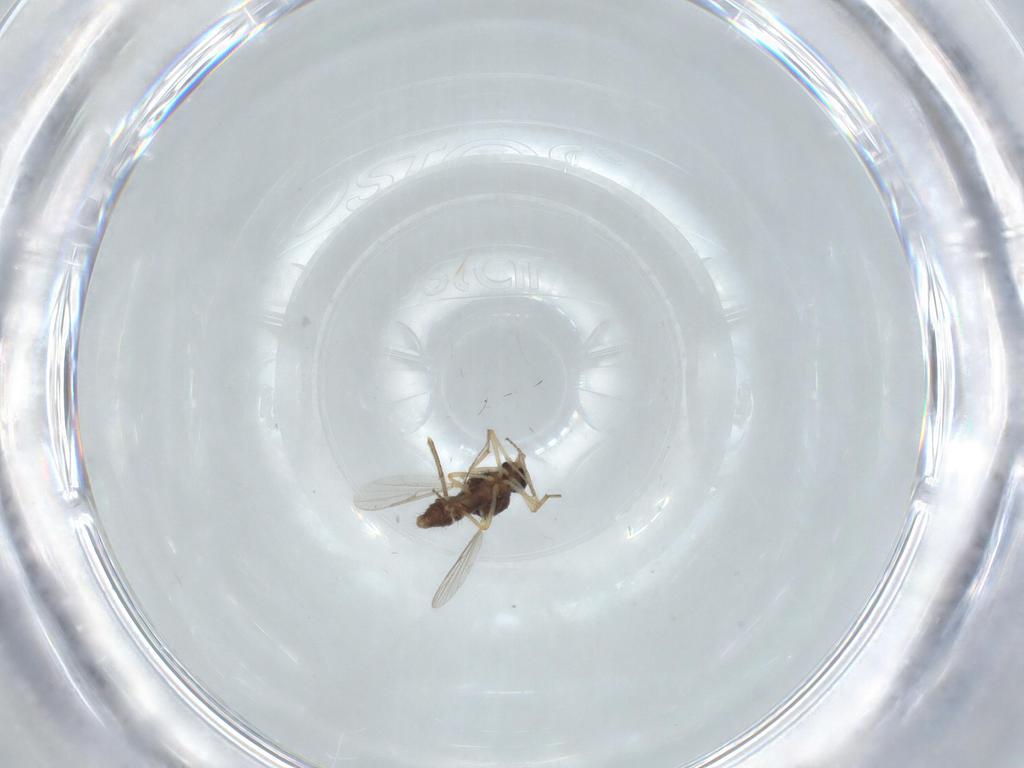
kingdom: Animalia
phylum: Arthropoda
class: Insecta
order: Diptera
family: Ceratopogonidae
